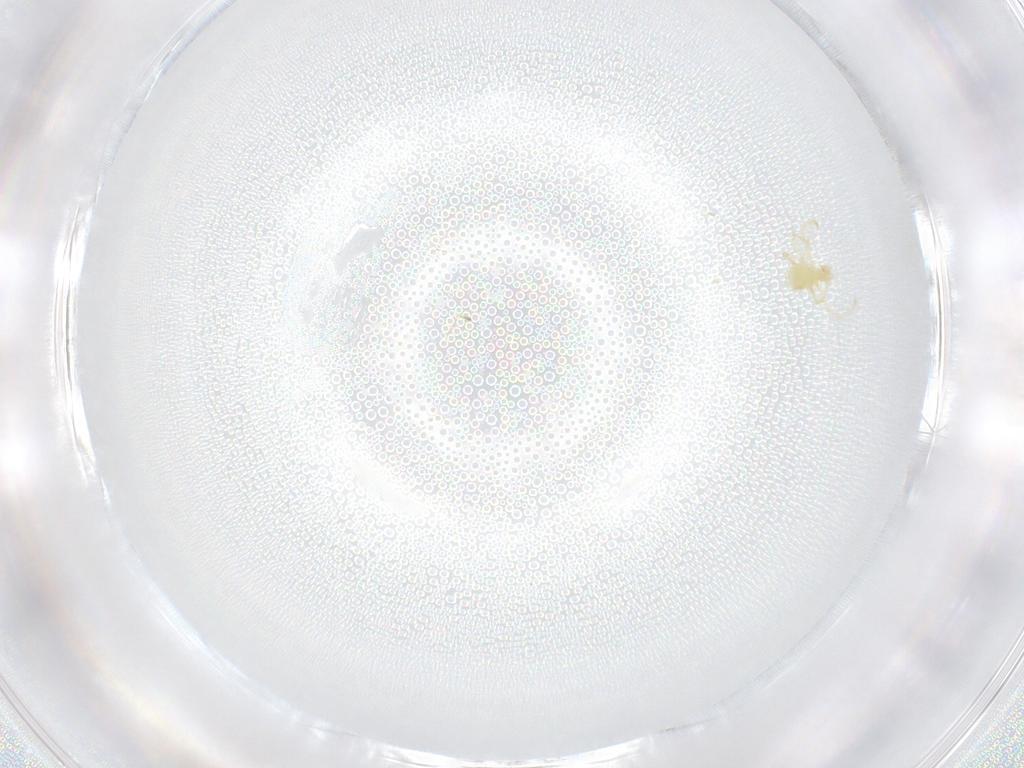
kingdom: Animalia
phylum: Arthropoda
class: Arachnida
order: Trombidiformes
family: Erythraeidae
